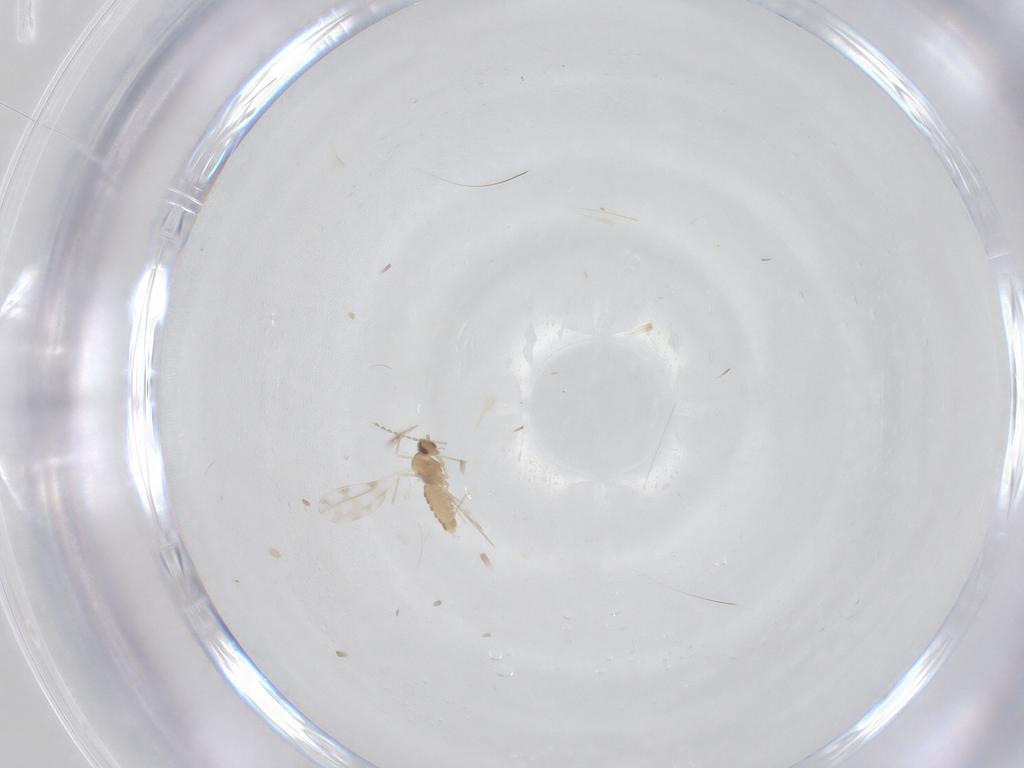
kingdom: Animalia
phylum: Arthropoda
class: Insecta
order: Diptera
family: Cecidomyiidae
